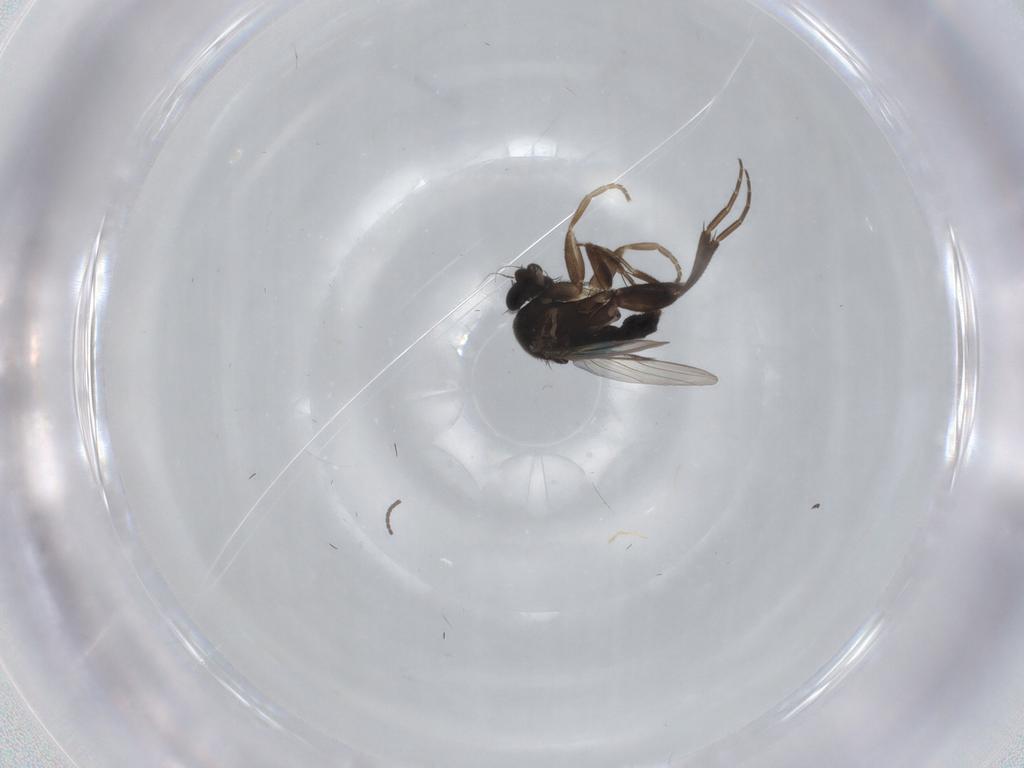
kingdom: Animalia
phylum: Arthropoda
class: Insecta
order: Diptera
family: Phoridae
